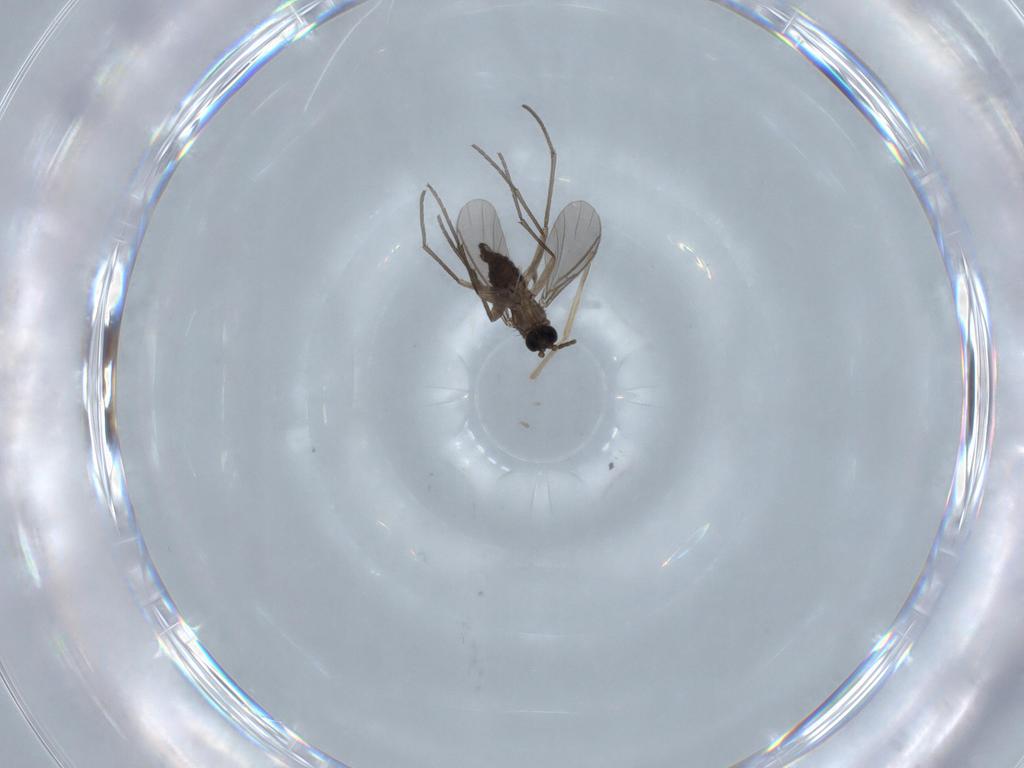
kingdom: Animalia
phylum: Arthropoda
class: Insecta
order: Diptera
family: Sciaridae
